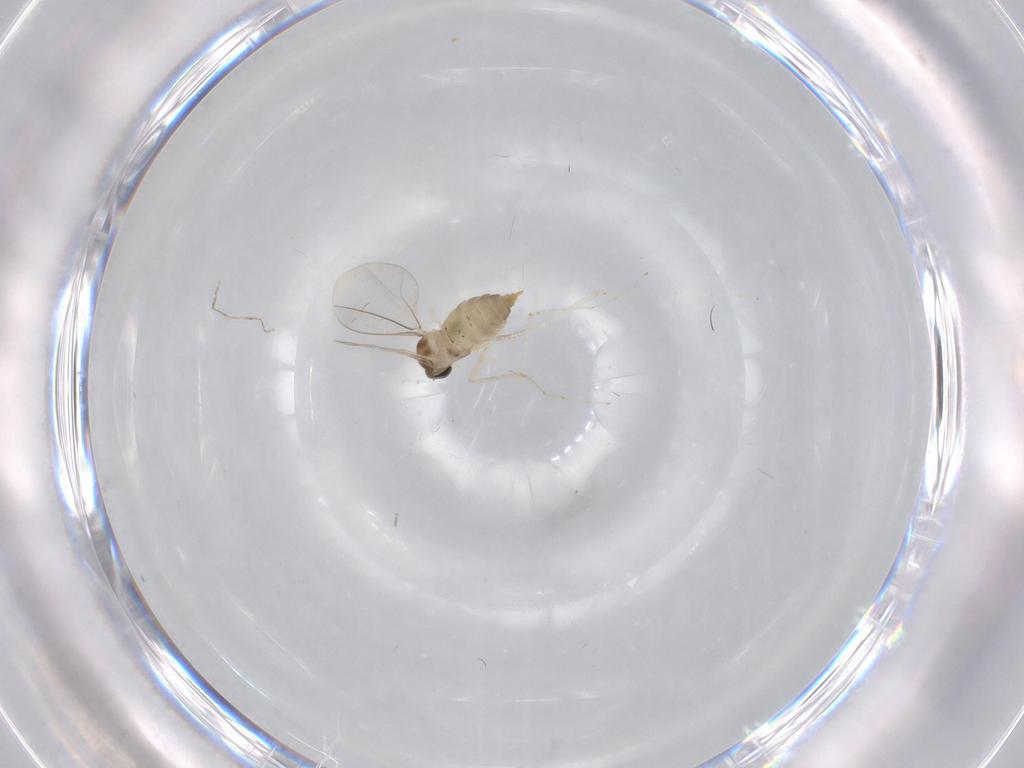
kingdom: Animalia
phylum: Arthropoda
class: Insecta
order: Diptera
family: Cecidomyiidae
